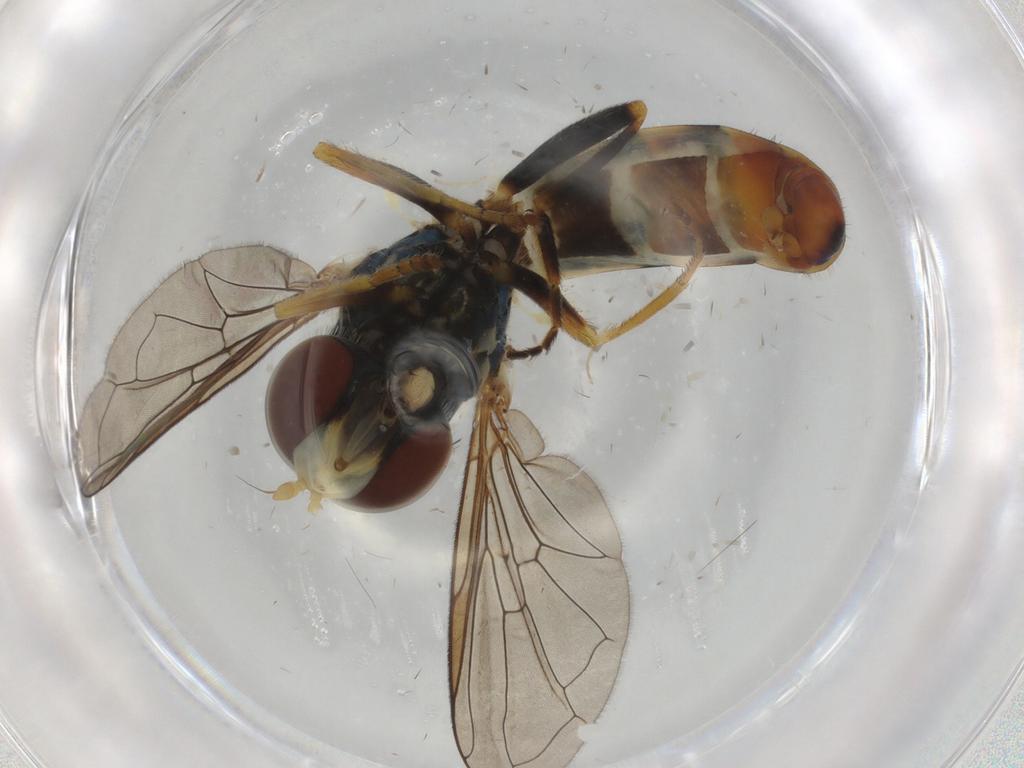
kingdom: Animalia
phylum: Arthropoda
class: Insecta
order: Diptera
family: Syrphidae
